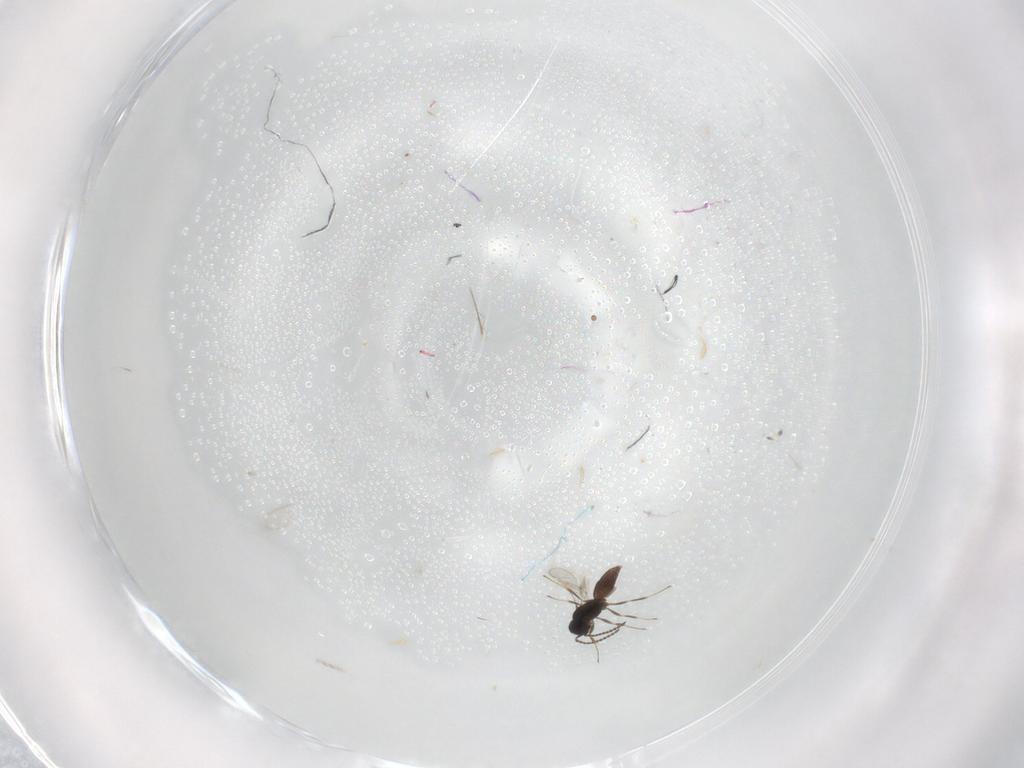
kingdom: Animalia
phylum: Arthropoda
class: Insecta
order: Hymenoptera
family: Scelionidae
